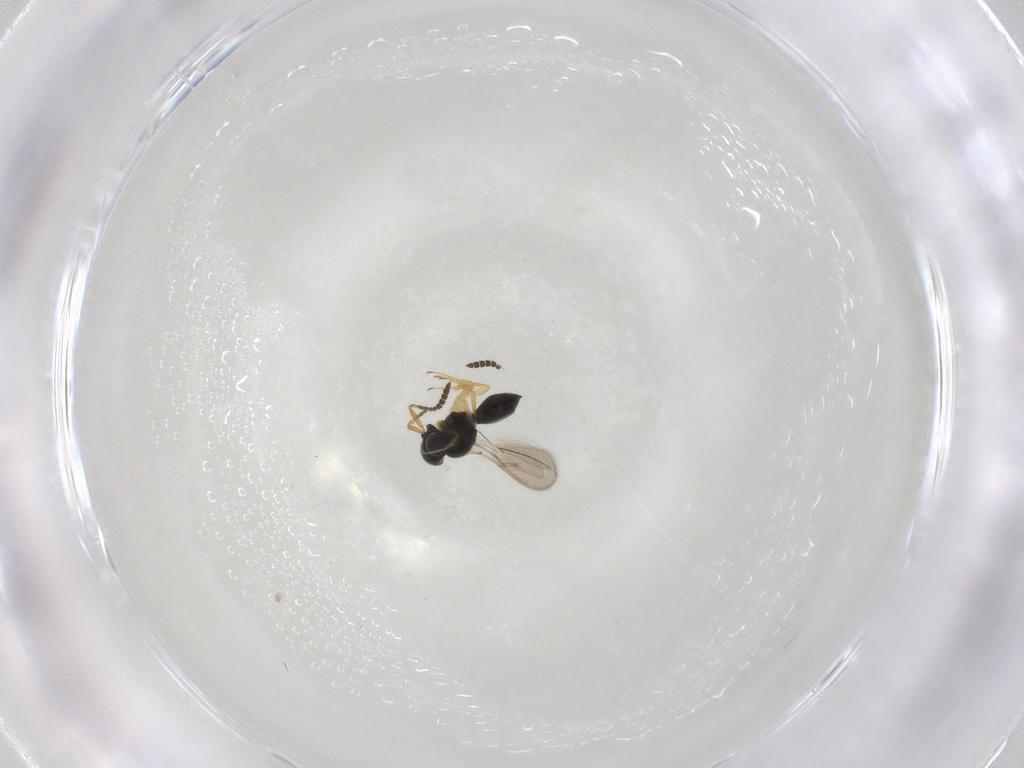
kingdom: Animalia
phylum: Arthropoda
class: Insecta
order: Hymenoptera
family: Scelionidae
